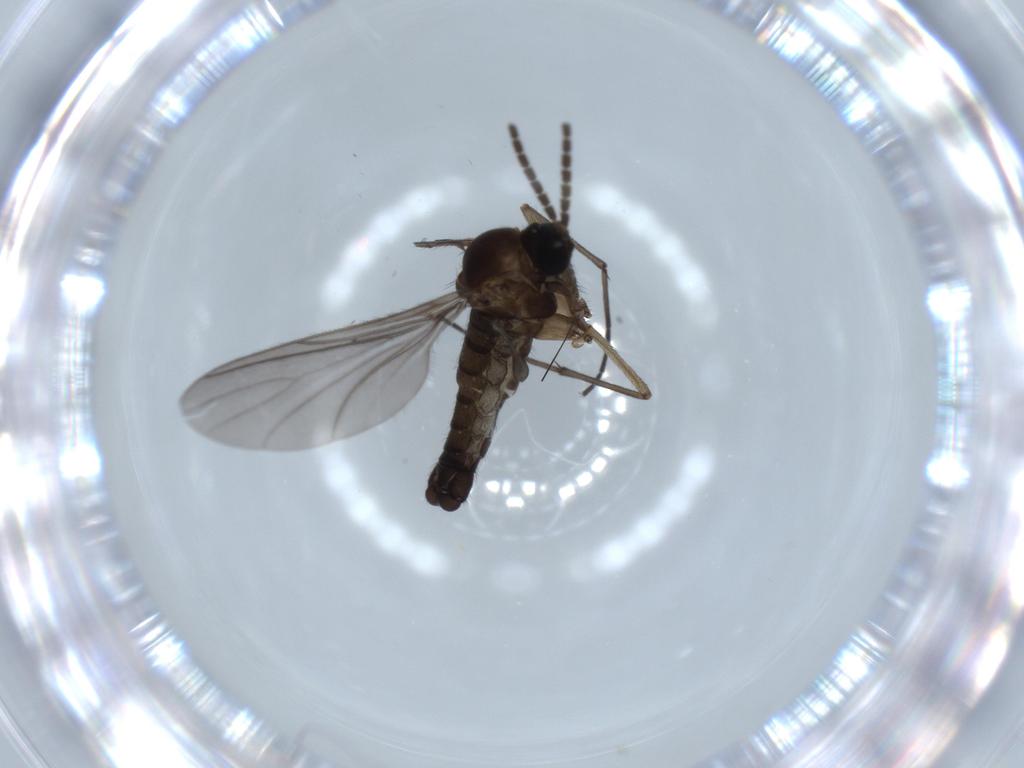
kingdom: Animalia
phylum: Arthropoda
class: Insecta
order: Diptera
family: Sciaridae
